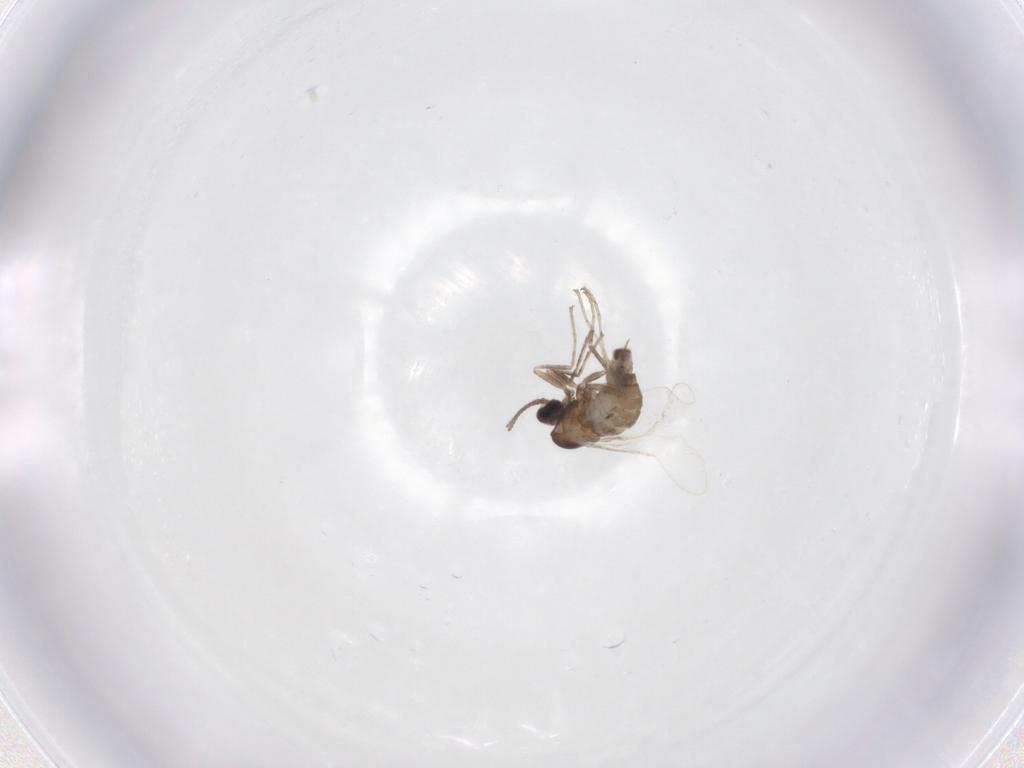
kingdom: Animalia
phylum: Arthropoda
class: Insecta
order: Diptera
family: Cecidomyiidae
